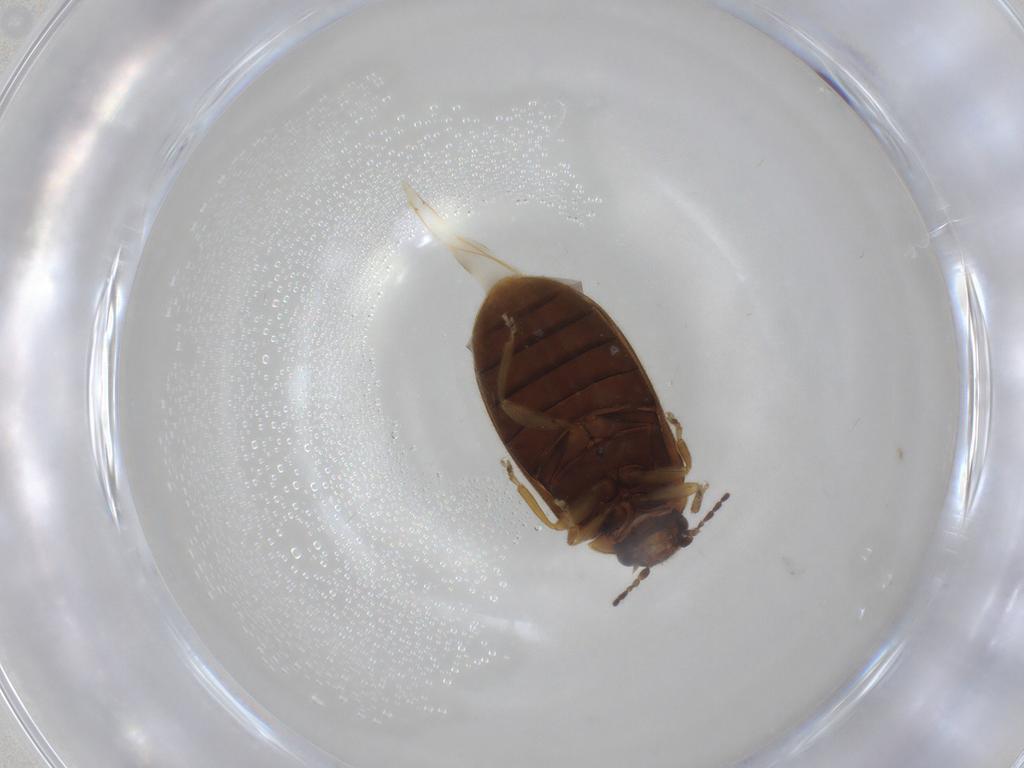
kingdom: Animalia
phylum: Arthropoda
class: Insecta
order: Coleoptera
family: Scirtidae
